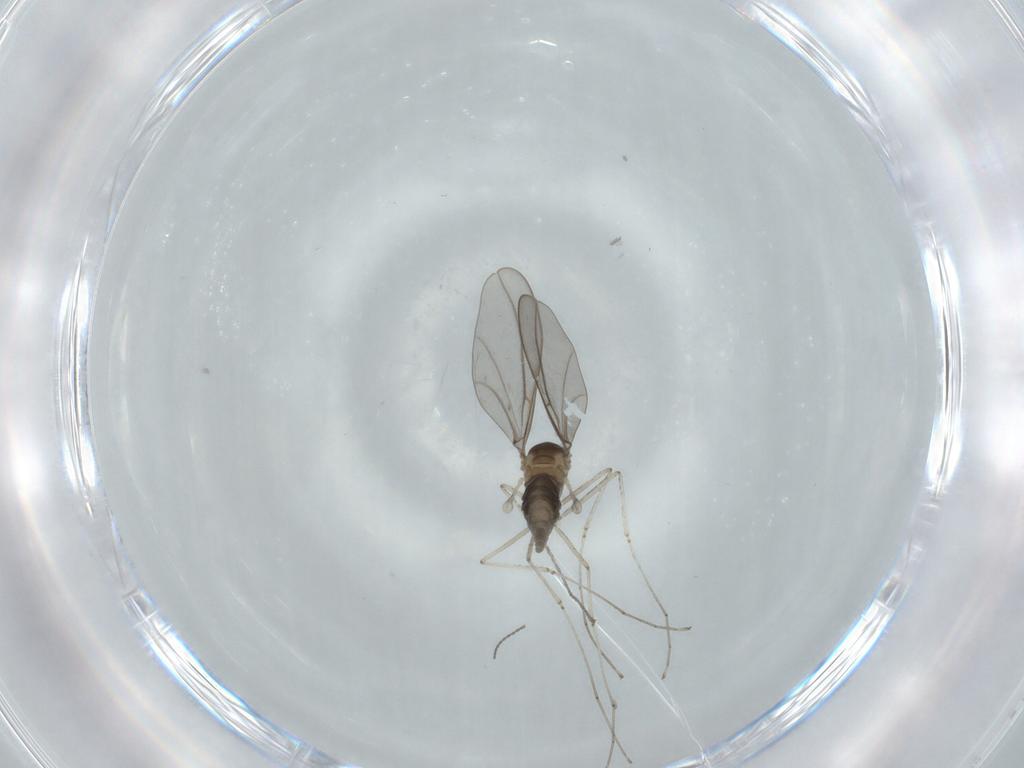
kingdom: Animalia
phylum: Arthropoda
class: Insecta
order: Diptera
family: Cecidomyiidae
